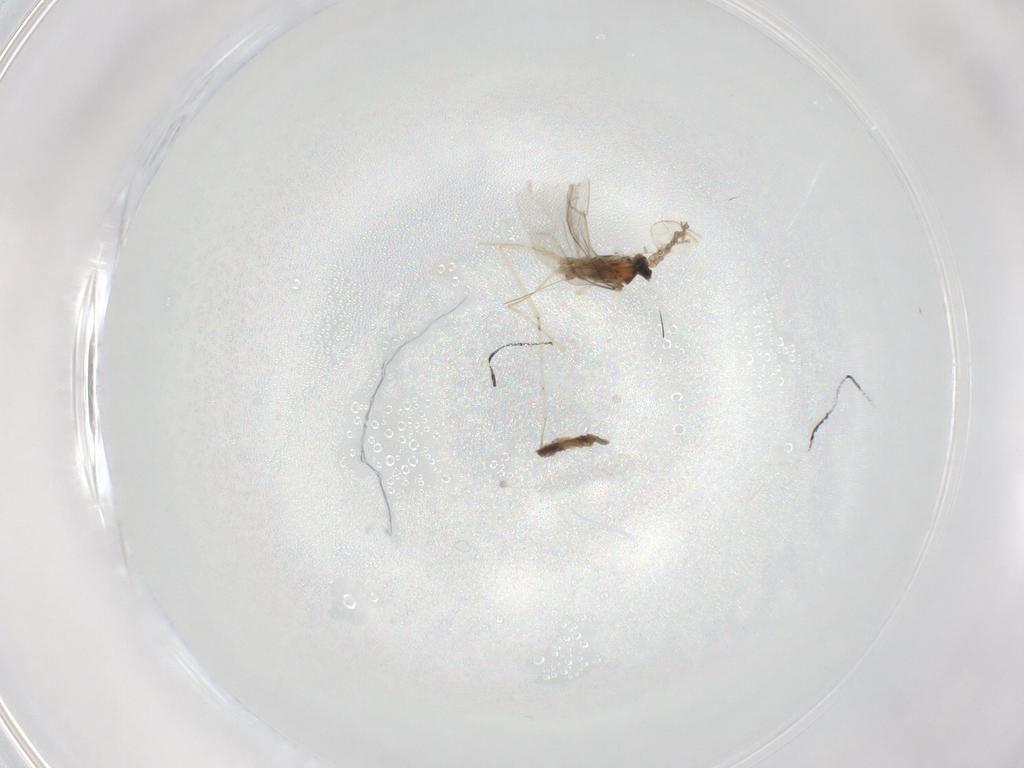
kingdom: Animalia
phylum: Arthropoda
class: Insecta
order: Diptera
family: Cecidomyiidae
